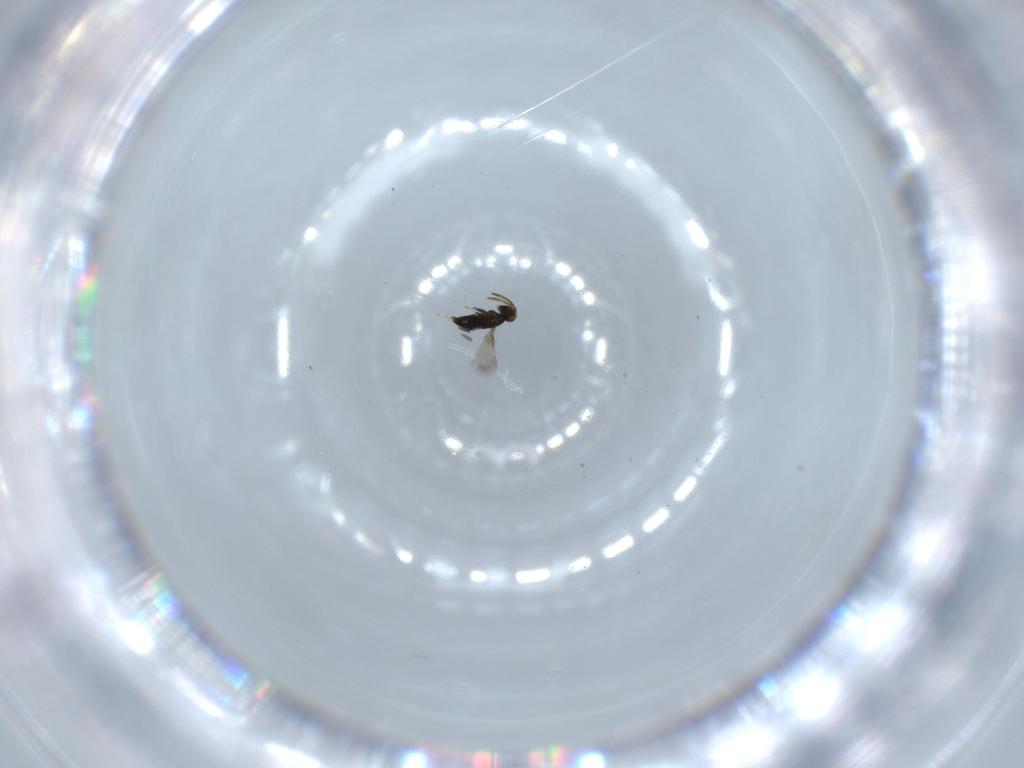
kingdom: Animalia
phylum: Arthropoda
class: Insecta
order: Hymenoptera
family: Signiphoridae
